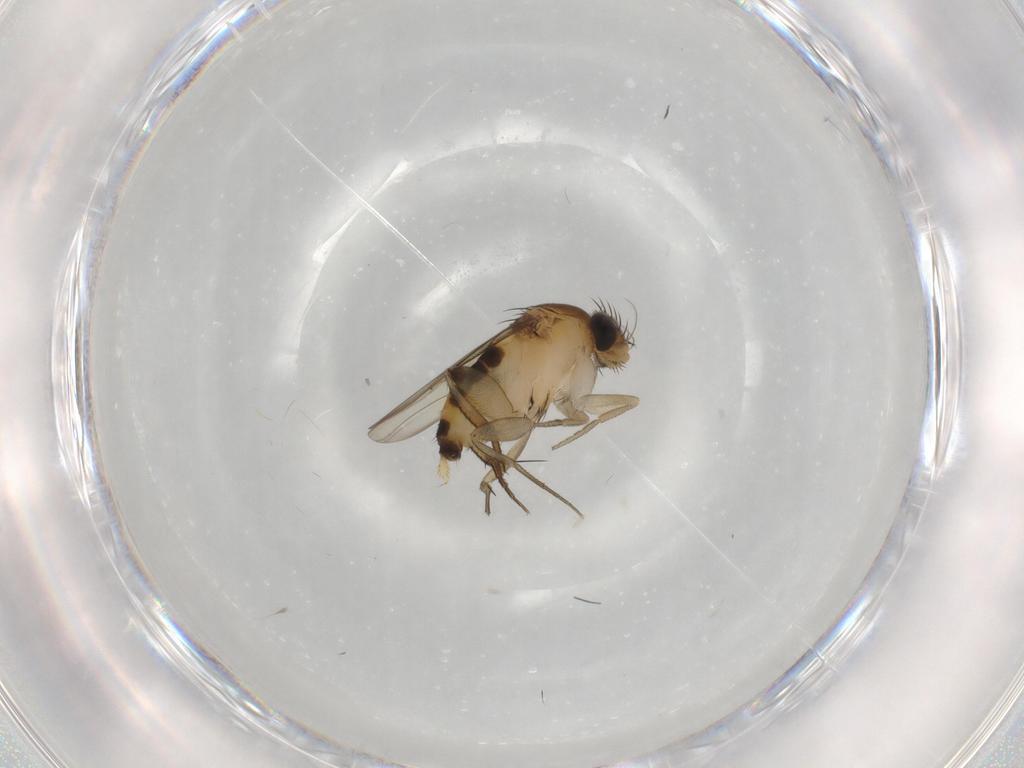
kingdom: Animalia
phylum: Arthropoda
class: Insecta
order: Diptera
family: Phoridae
